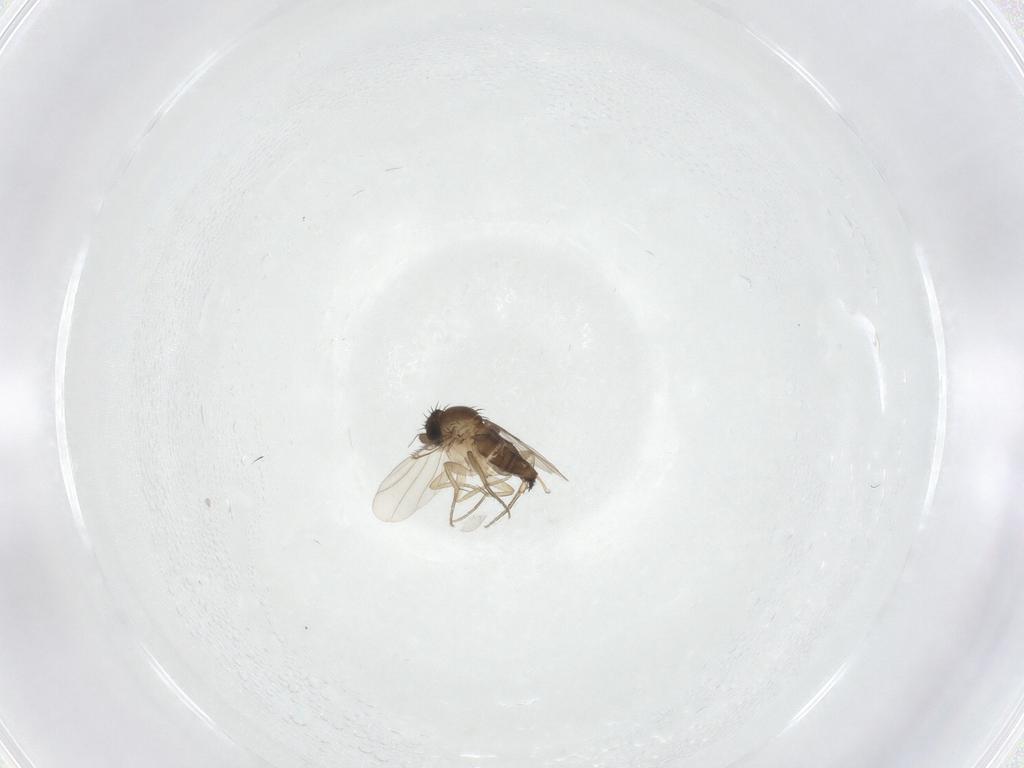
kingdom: Animalia
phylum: Arthropoda
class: Insecta
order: Diptera
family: Phoridae
